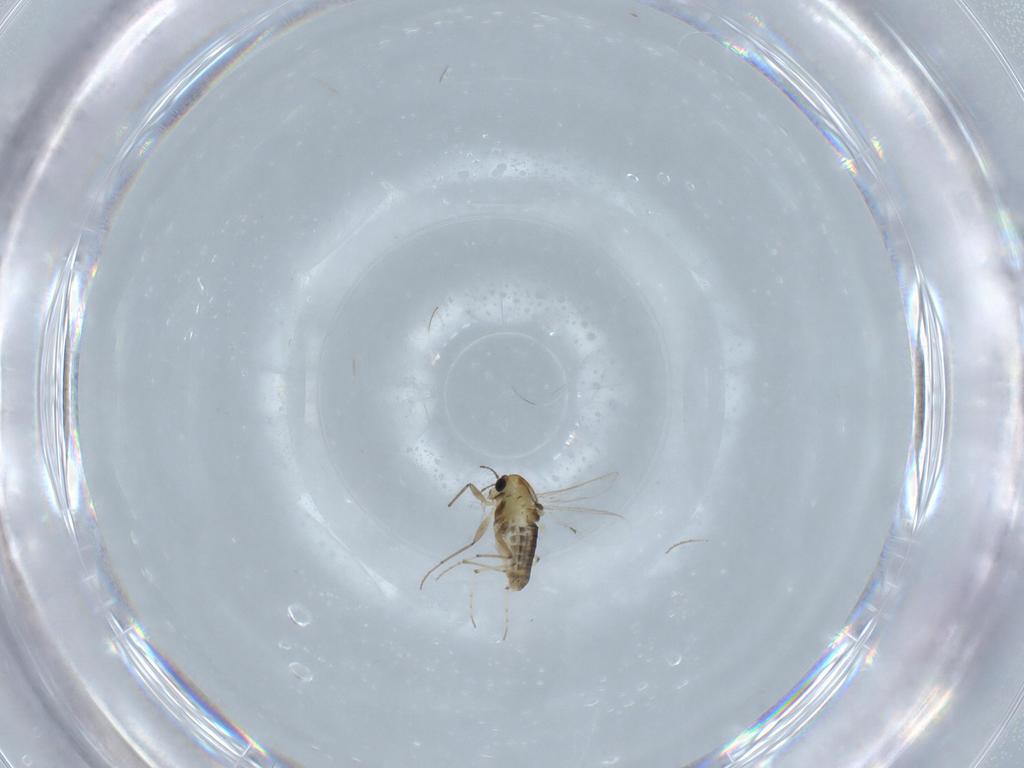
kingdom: Animalia
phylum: Arthropoda
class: Insecta
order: Diptera
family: Chironomidae
